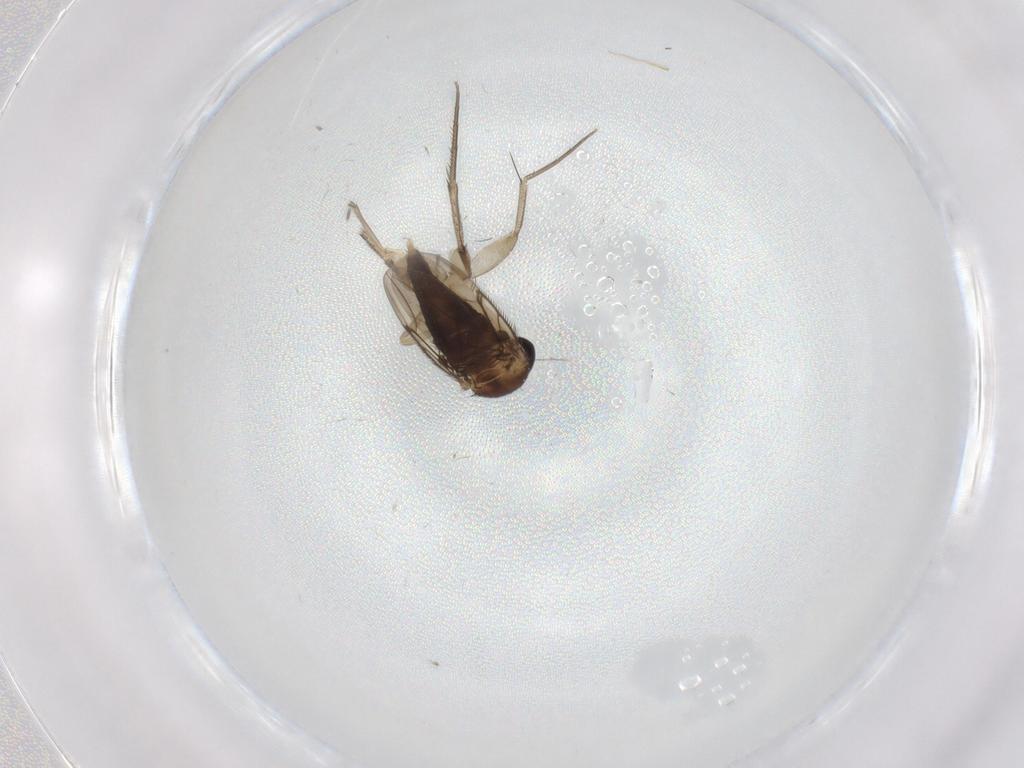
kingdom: Animalia
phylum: Arthropoda
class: Insecta
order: Diptera
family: Phoridae
